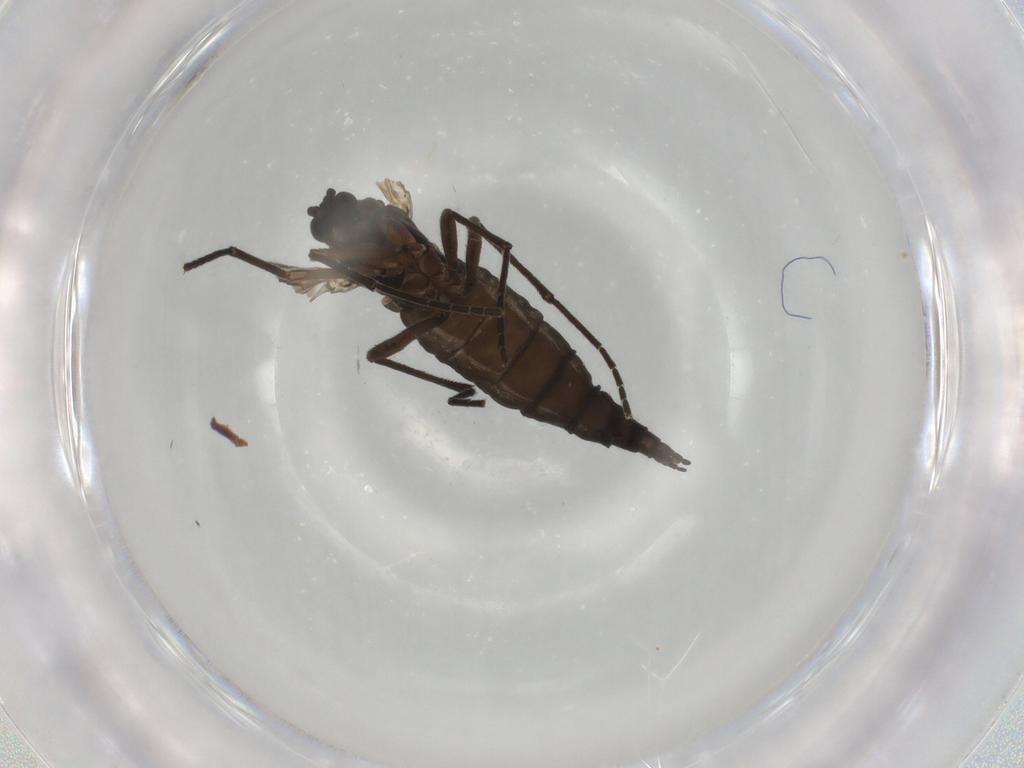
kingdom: Animalia
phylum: Arthropoda
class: Insecta
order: Diptera
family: Sciaridae
